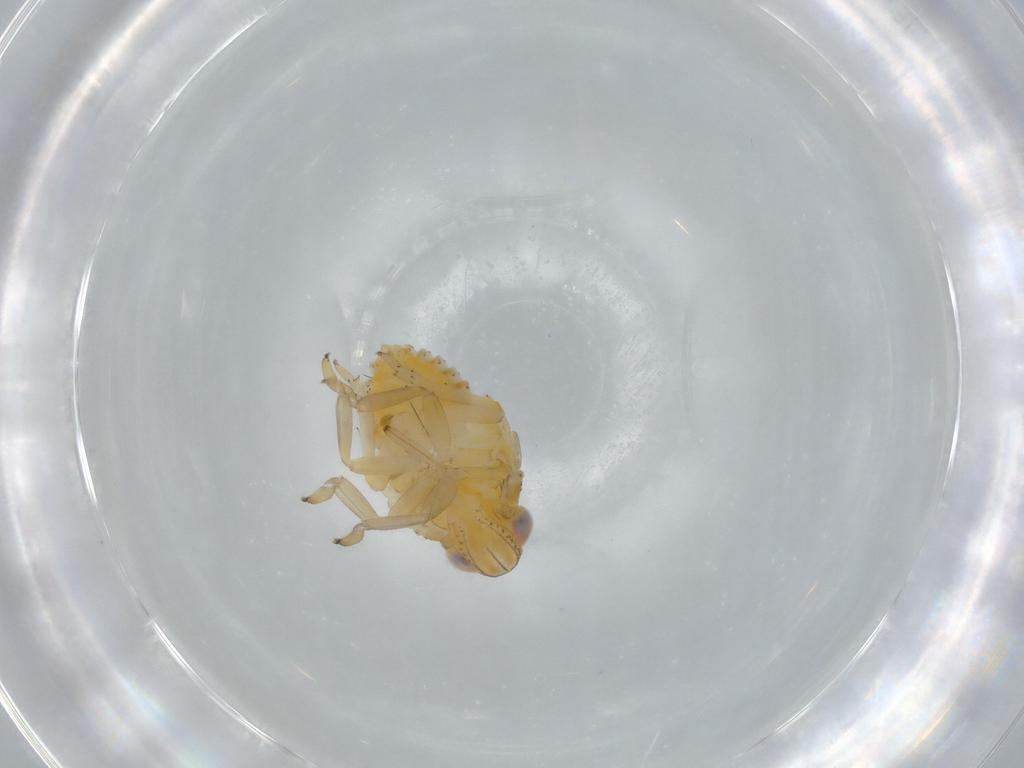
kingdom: Animalia
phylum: Arthropoda
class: Insecta
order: Hemiptera
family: Issidae
